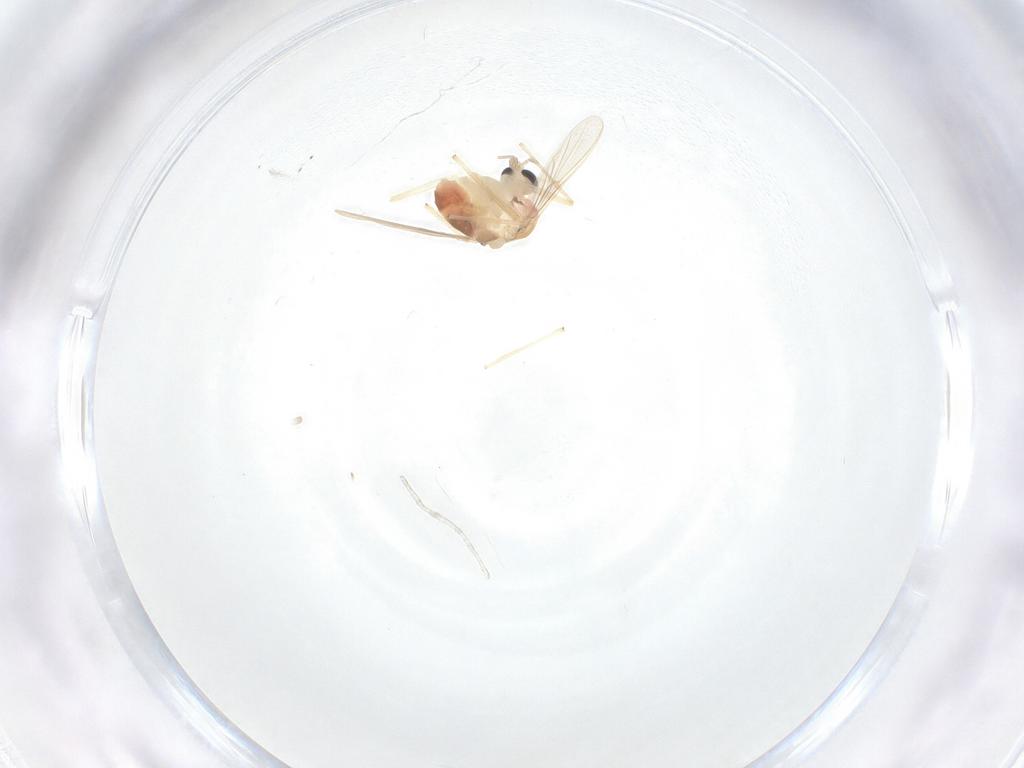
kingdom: Animalia
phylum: Arthropoda
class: Insecta
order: Diptera
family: Chironomidae
